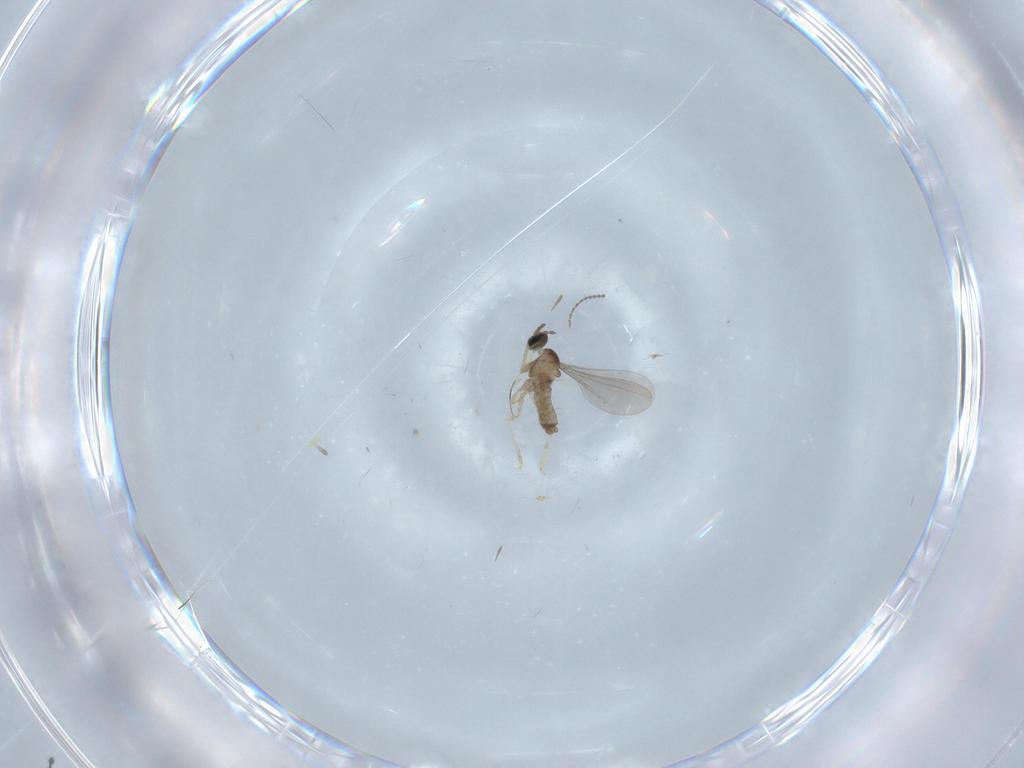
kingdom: Animalia
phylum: Arthropoda
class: Insecta
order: Diptera
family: Ceratopogonidae
